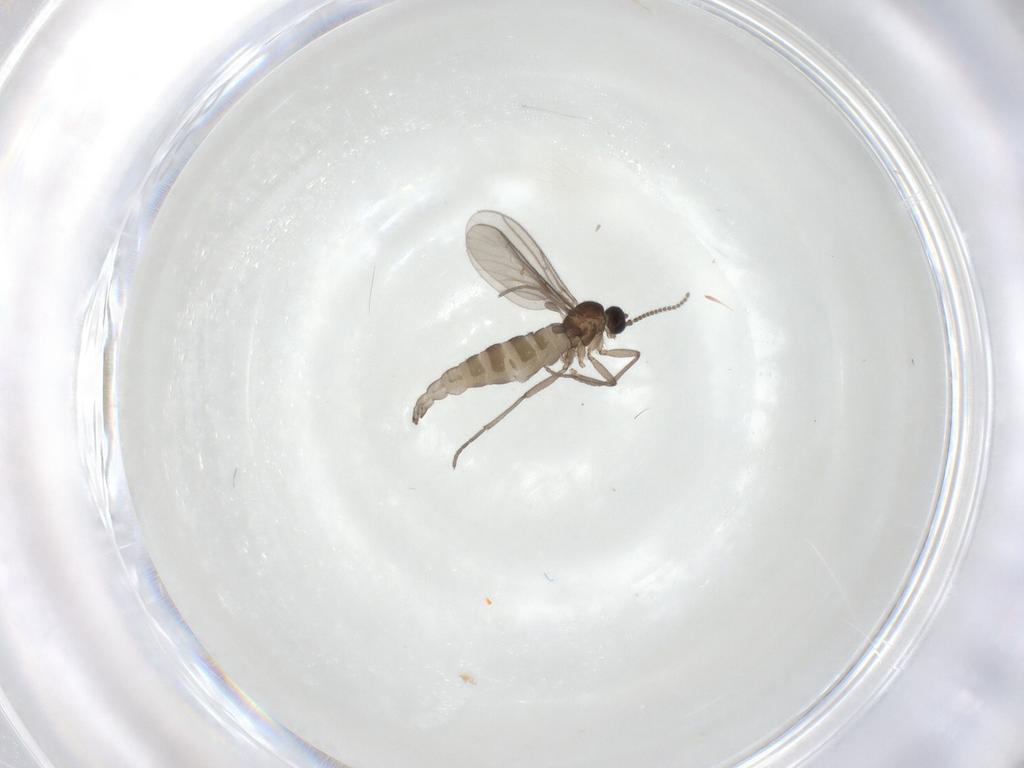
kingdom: Animalia
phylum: Arthropoda
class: Insecta
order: Diptera
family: Phoridae
